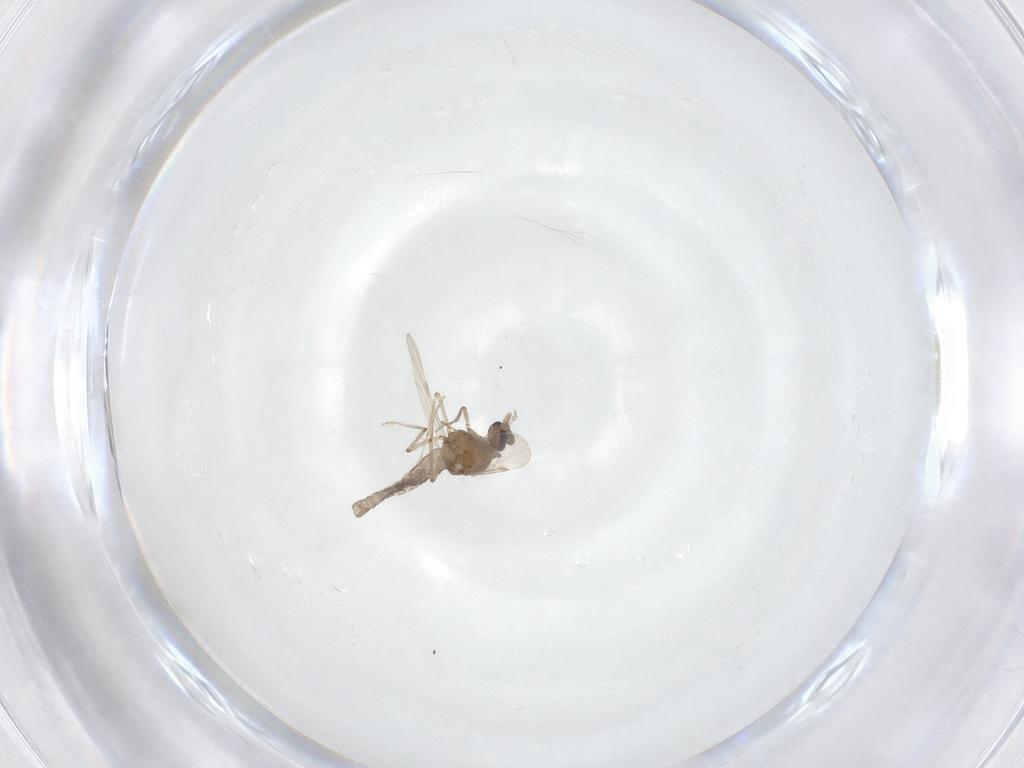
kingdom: Animalia
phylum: Arthropoda
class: Insecta
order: Diptera
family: Ceratopogonidae
